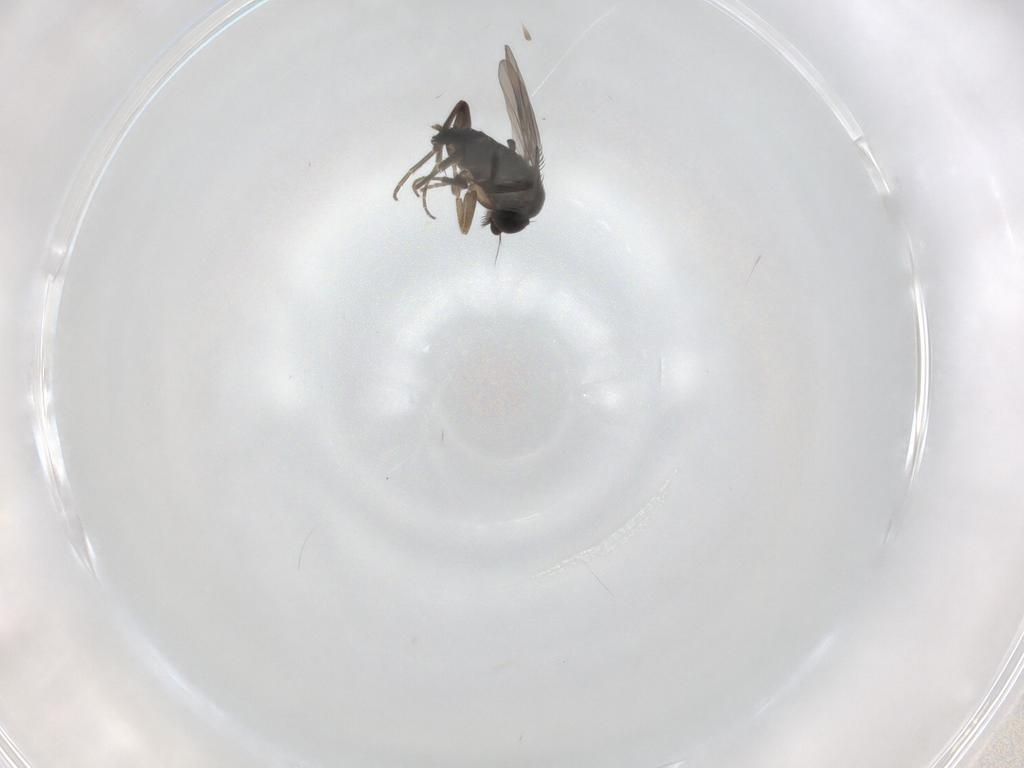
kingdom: Animalia
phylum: Arthropoda
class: Insecta
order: Diptera
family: Phoridae
